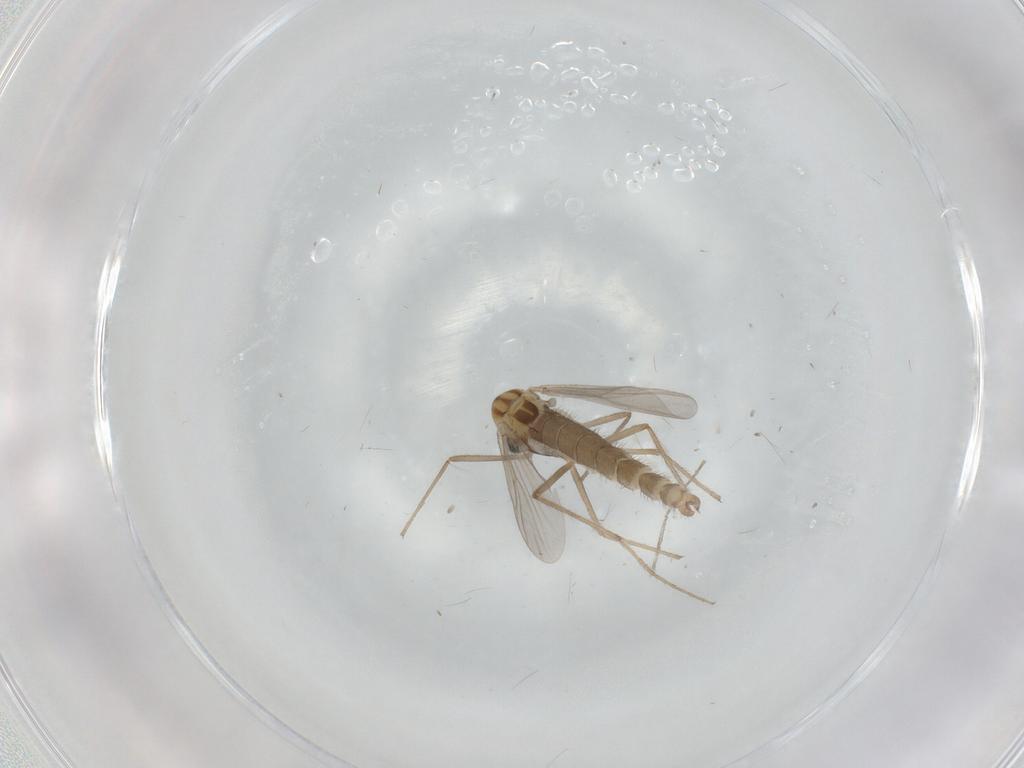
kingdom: Animalia
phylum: Arthropoda
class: Insecta
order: Diptera
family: Chironomidae
